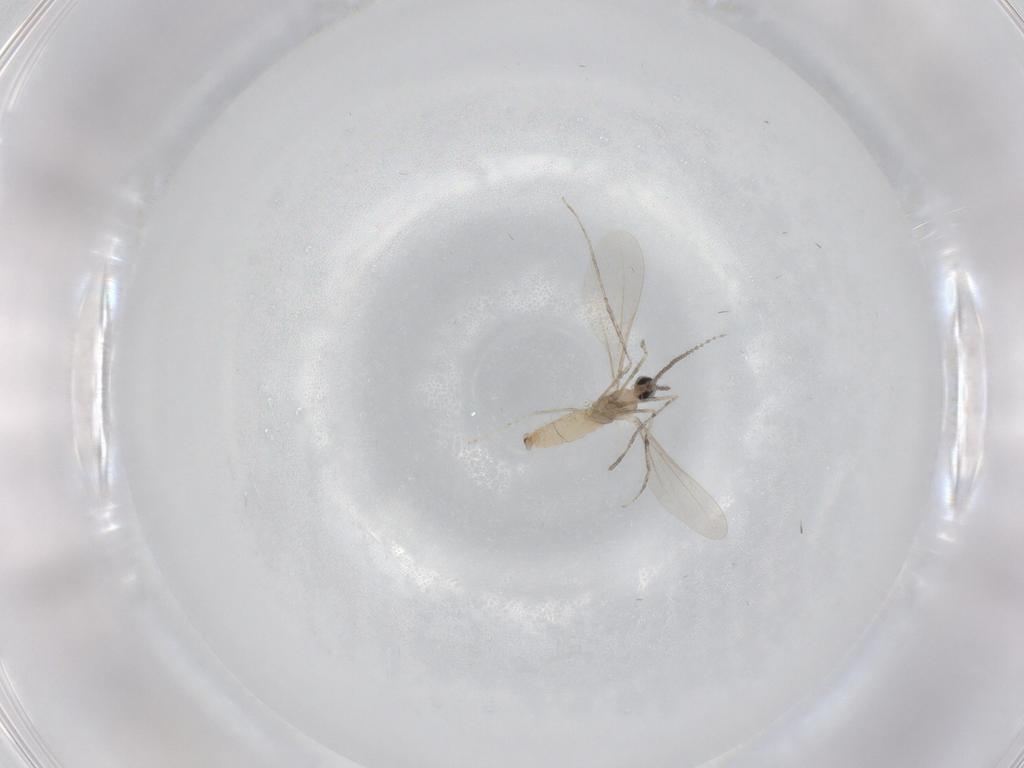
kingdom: Animalia
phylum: Arthropoda
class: Insecta
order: Diptera
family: Cecidomyiidae
